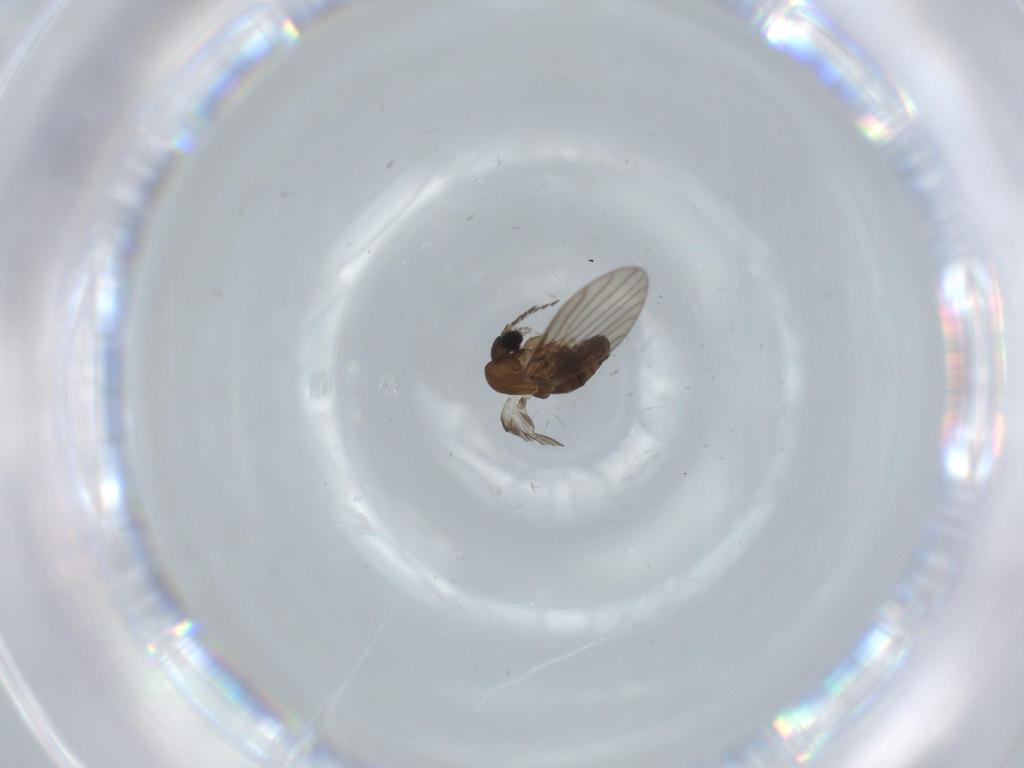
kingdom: Animalia
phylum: Arthropoda
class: Insecta
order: Diptera
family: Psychodidae
